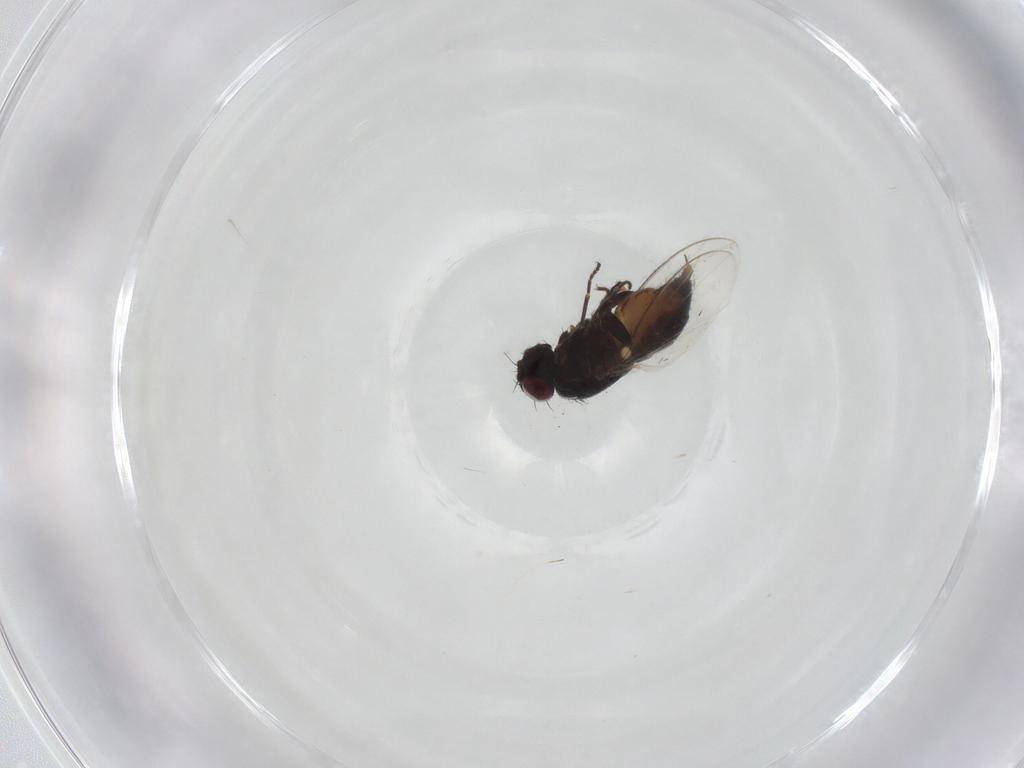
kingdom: Animalia
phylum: Arthropoda
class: Insecta
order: Diptera
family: Carnidae
